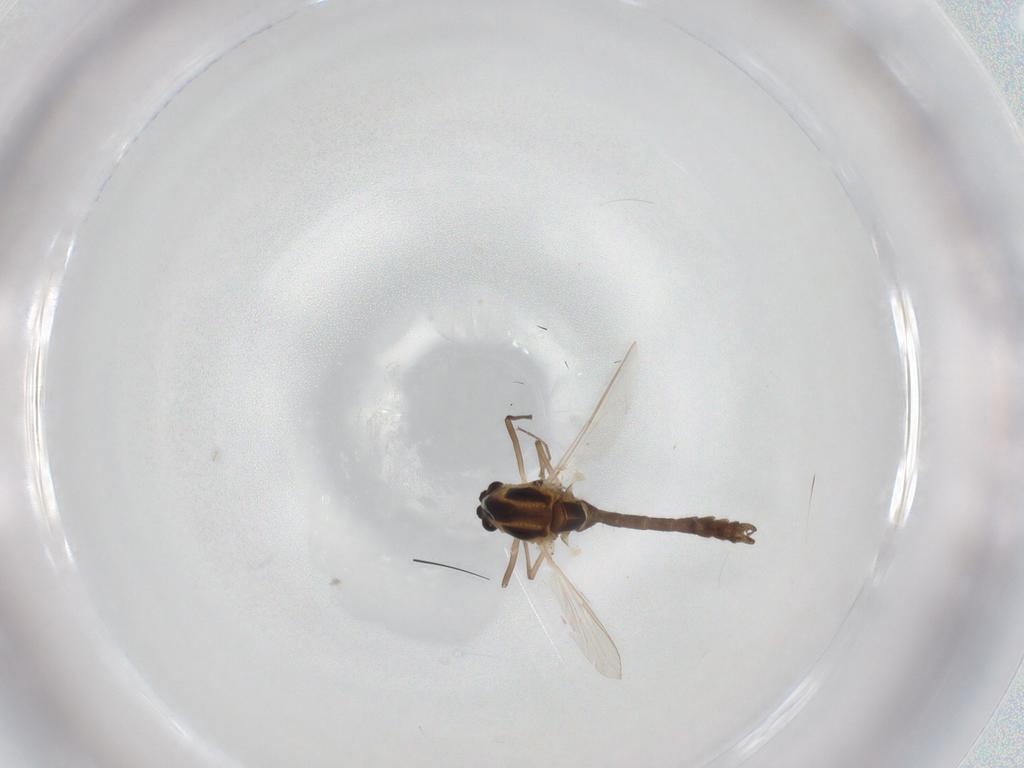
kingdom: Animalia
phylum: Arthropoda
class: Insecta
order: Diptera
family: Chironomidae
